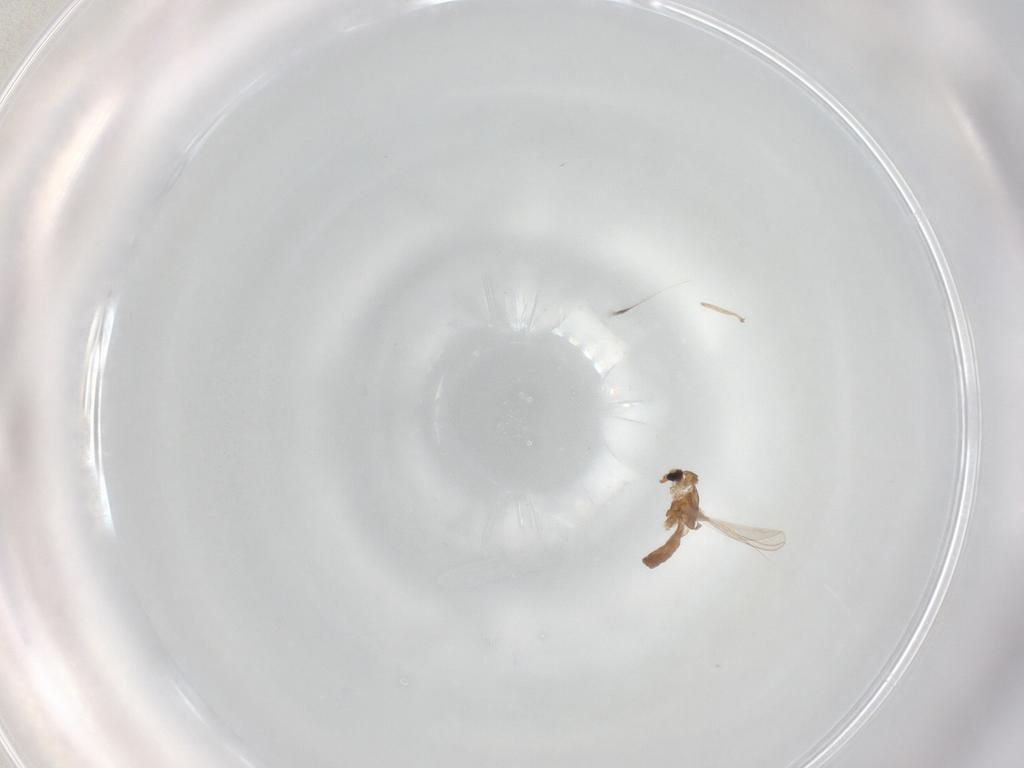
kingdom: Animalia
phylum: Arthropoda
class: Insecta
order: Diptera
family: Chironomidae
